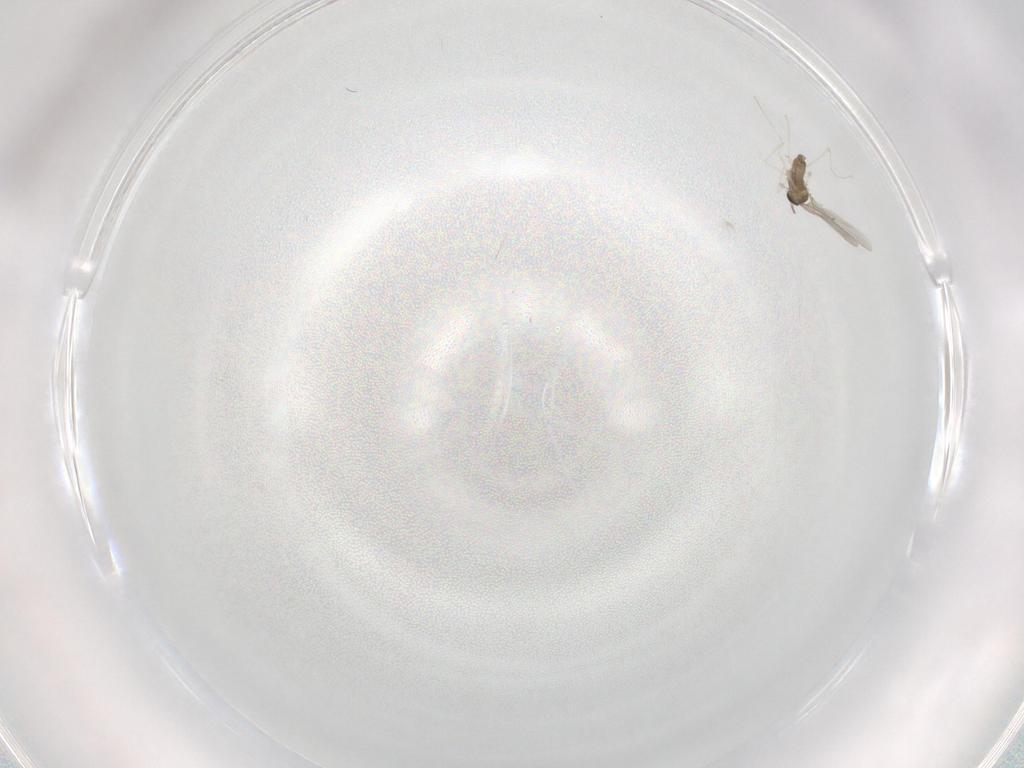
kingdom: Animalia
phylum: Arthropoda
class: Insecta
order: Diptera
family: Cecidomyiidae
